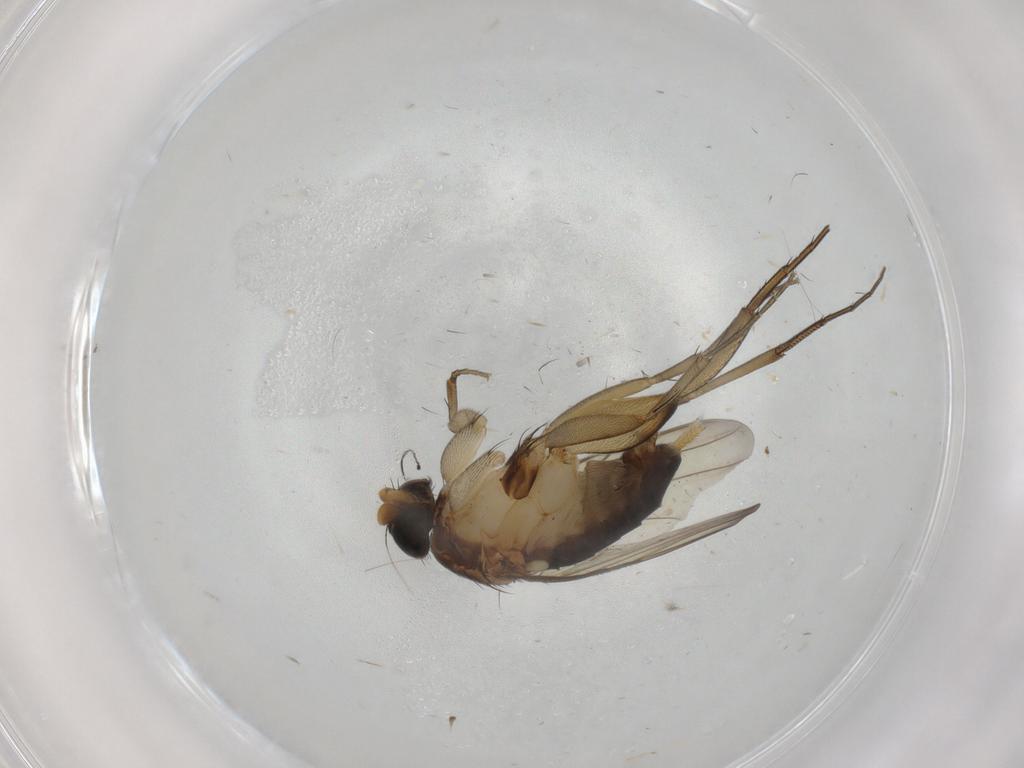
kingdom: Animalia
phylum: Arthropoda
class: Insecta
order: Diptera
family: Phoridae
